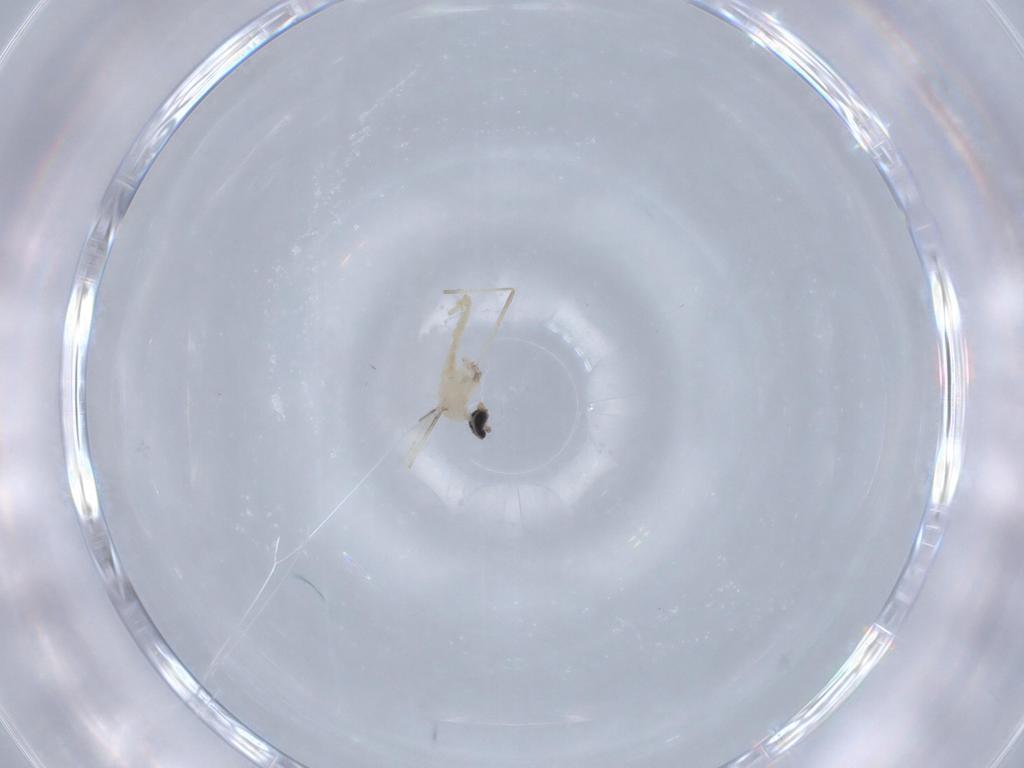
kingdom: Animalia
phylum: Arthropoda
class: Insecta
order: Diptera
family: Cecidomyiidae
